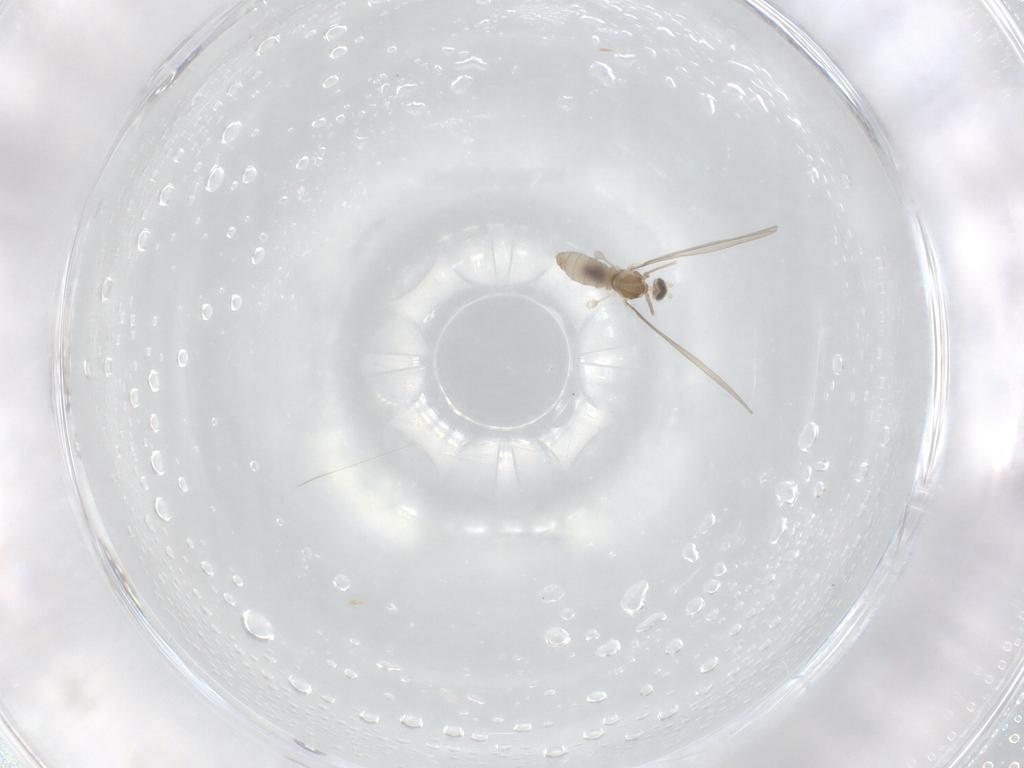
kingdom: Animalia
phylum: Arthropoda
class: Insecta
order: Diptera
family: Cecidomyiidae
